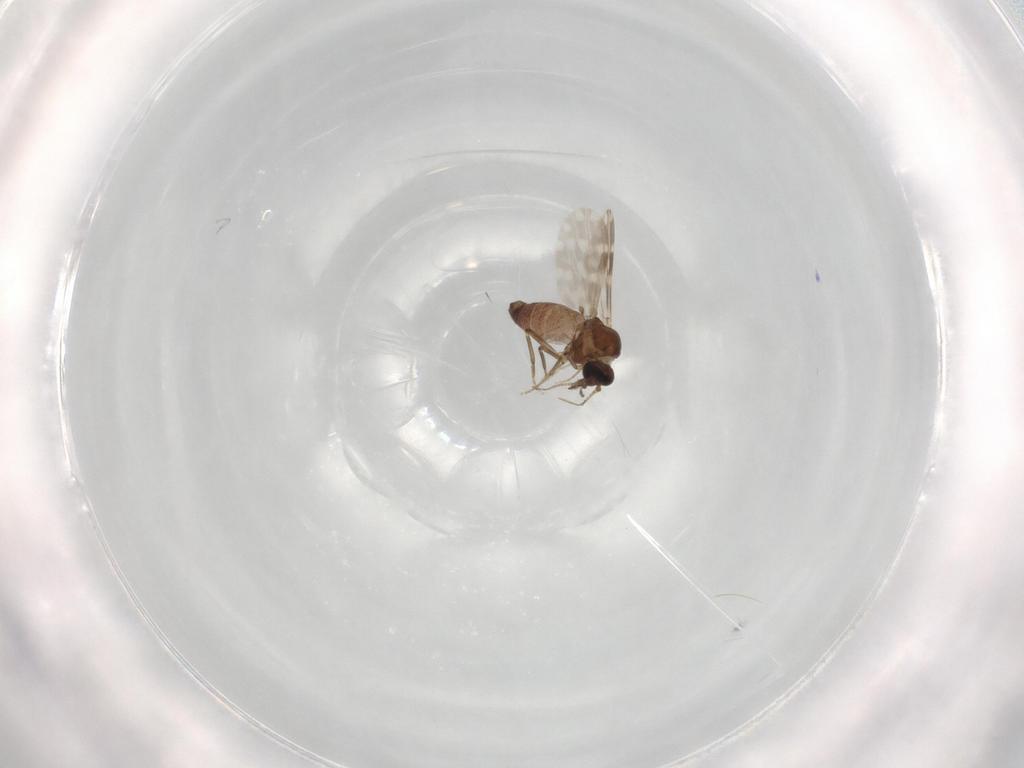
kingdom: Animalia
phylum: Arthropoda
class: Insecta
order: Diptera
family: Ceratopogonidae
